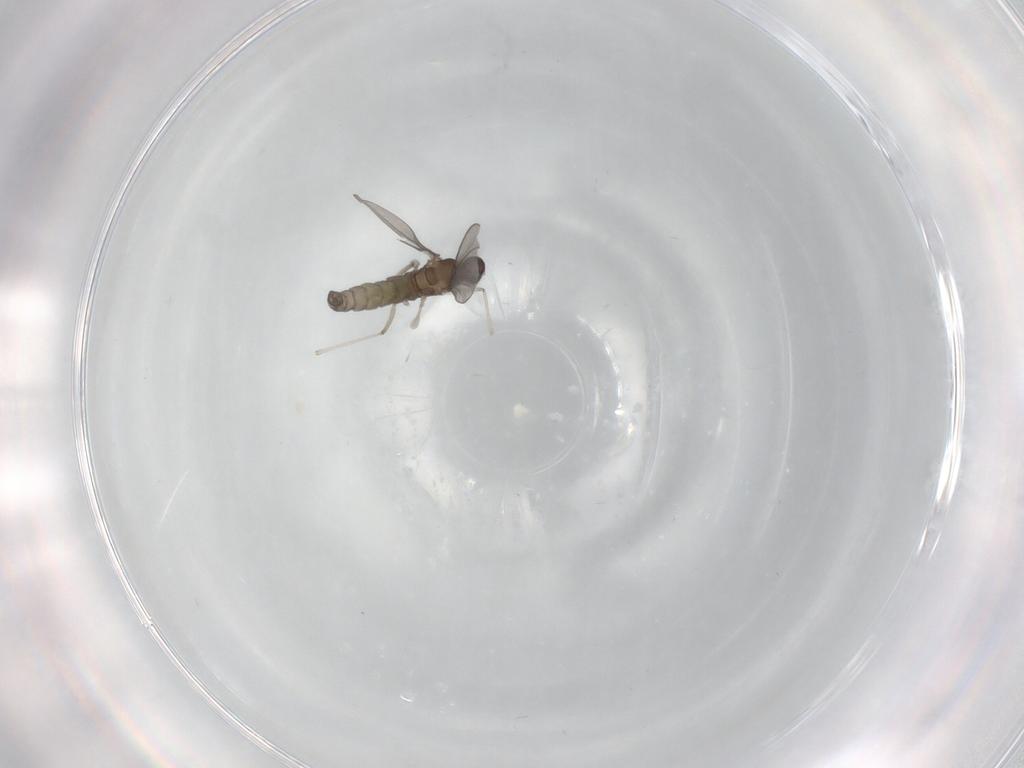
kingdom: Animalia
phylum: Arthropoda
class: Insecta
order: Diptera
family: Cecidomyiidae
